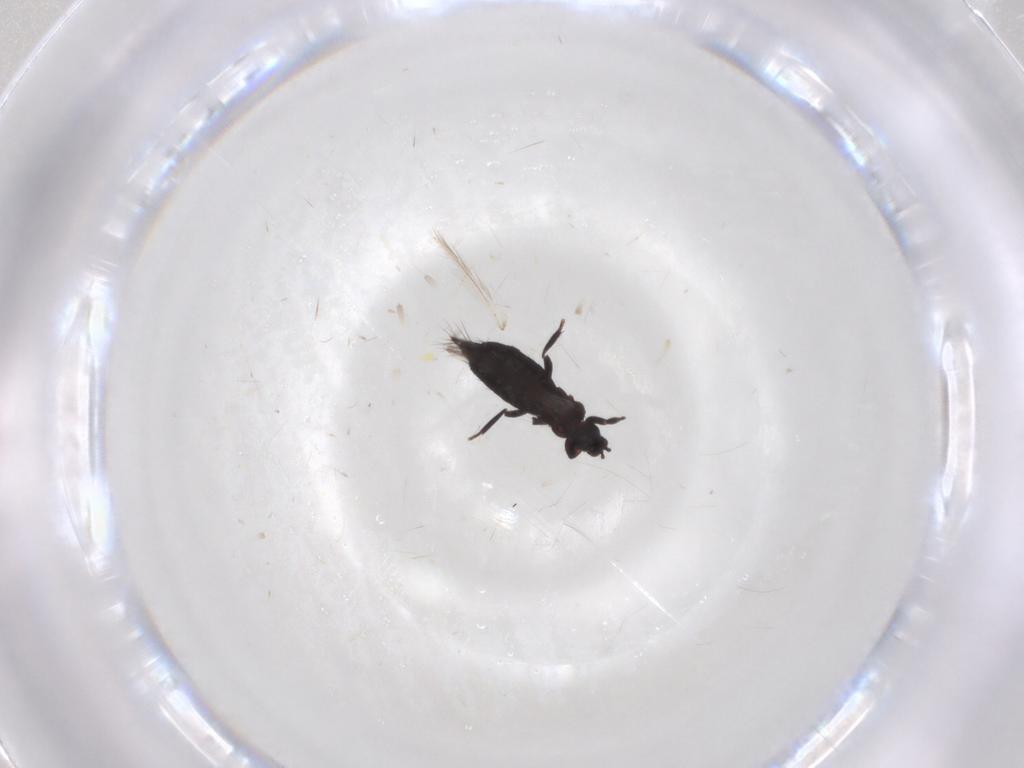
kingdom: Animalia
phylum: Arthropoda
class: Insecta
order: Thysanoptera
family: Thripidae
